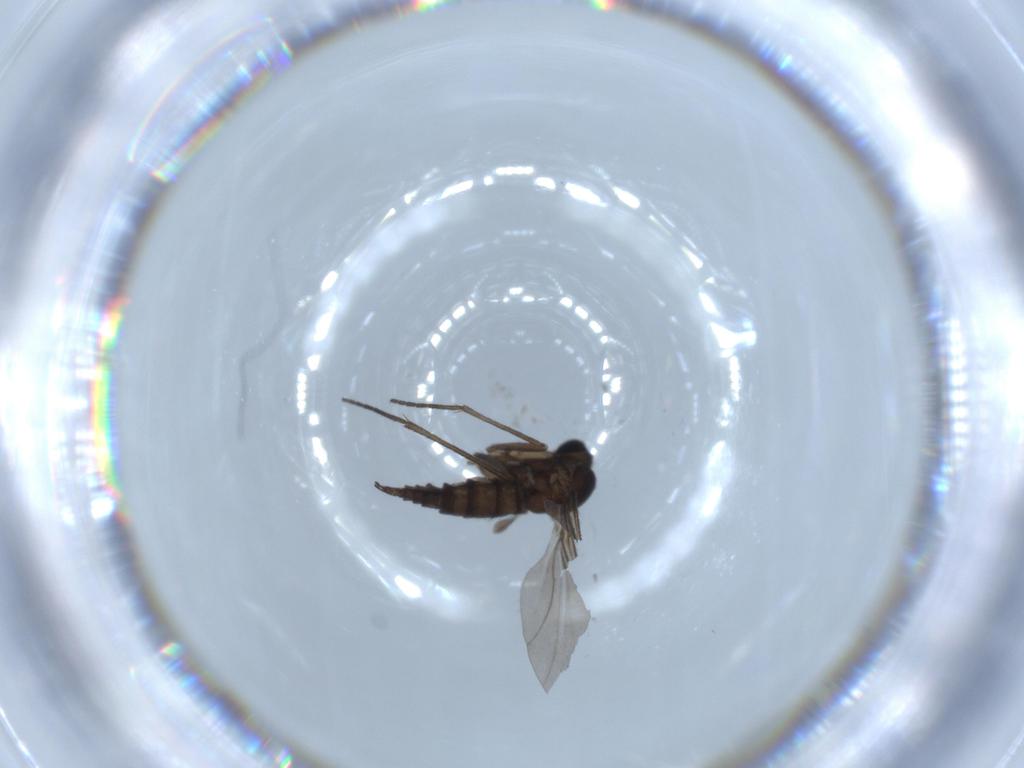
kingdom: Animalia
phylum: Arthropoda
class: Insecta
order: Diptera
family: Sciaridae
